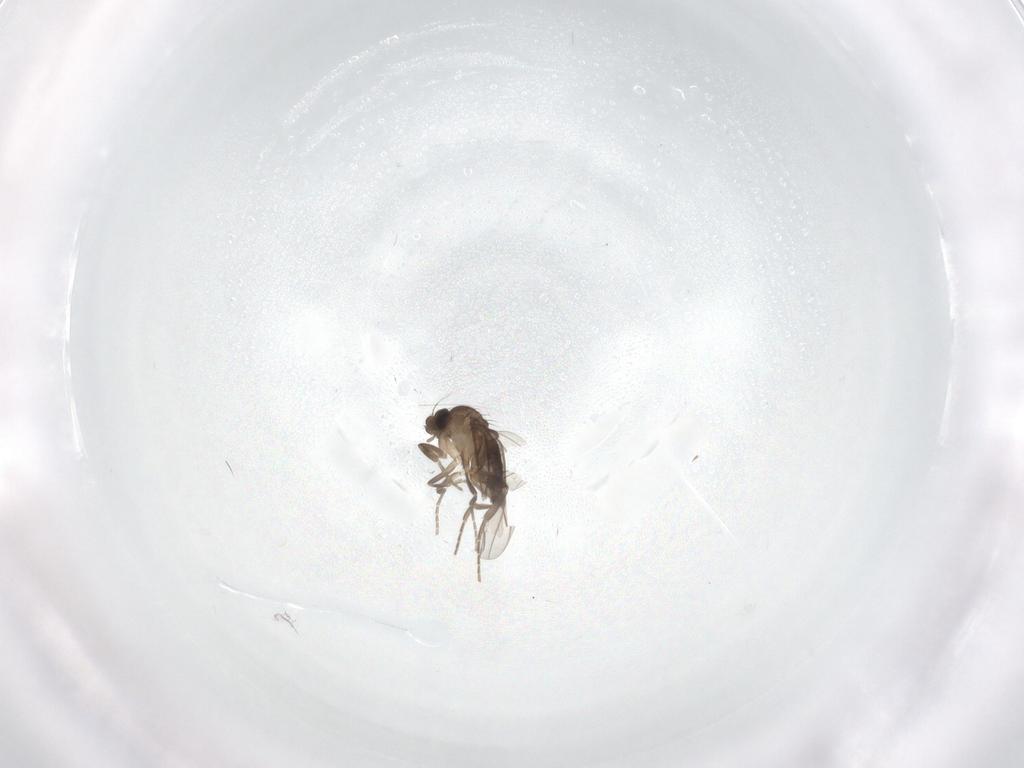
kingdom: Animalia
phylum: Arthropoda
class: Insecta
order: Diptera
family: Phoridae
